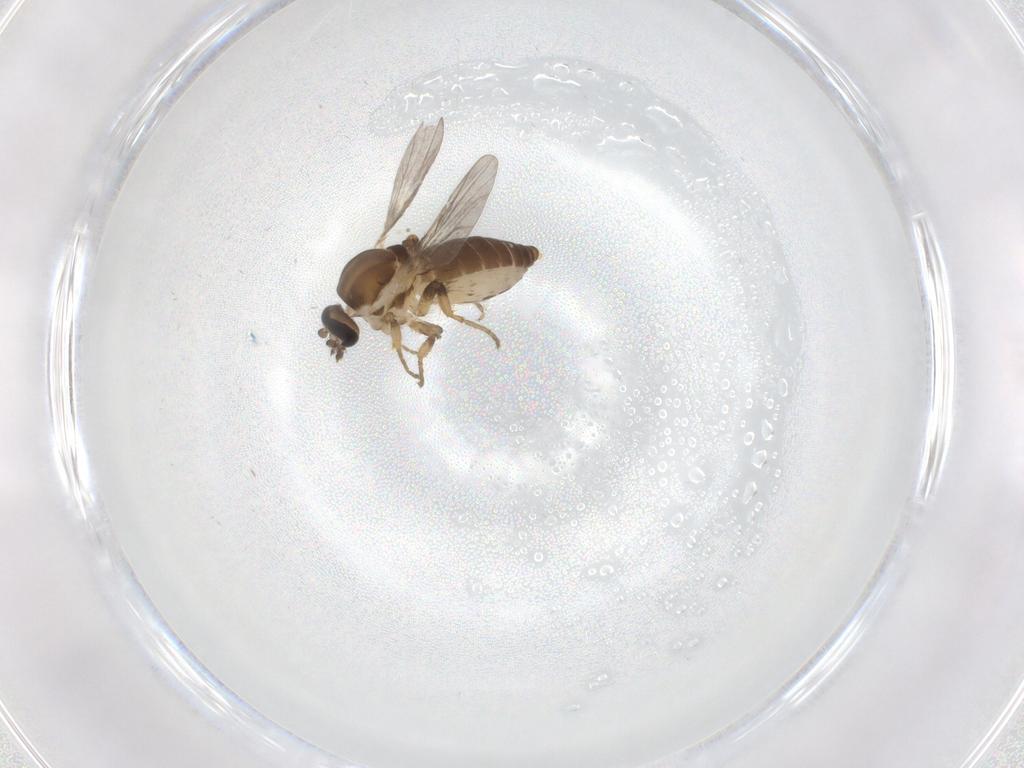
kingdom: Animalia
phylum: Arthropoda
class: Insecta
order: Diptera
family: Ceratopogonidae
